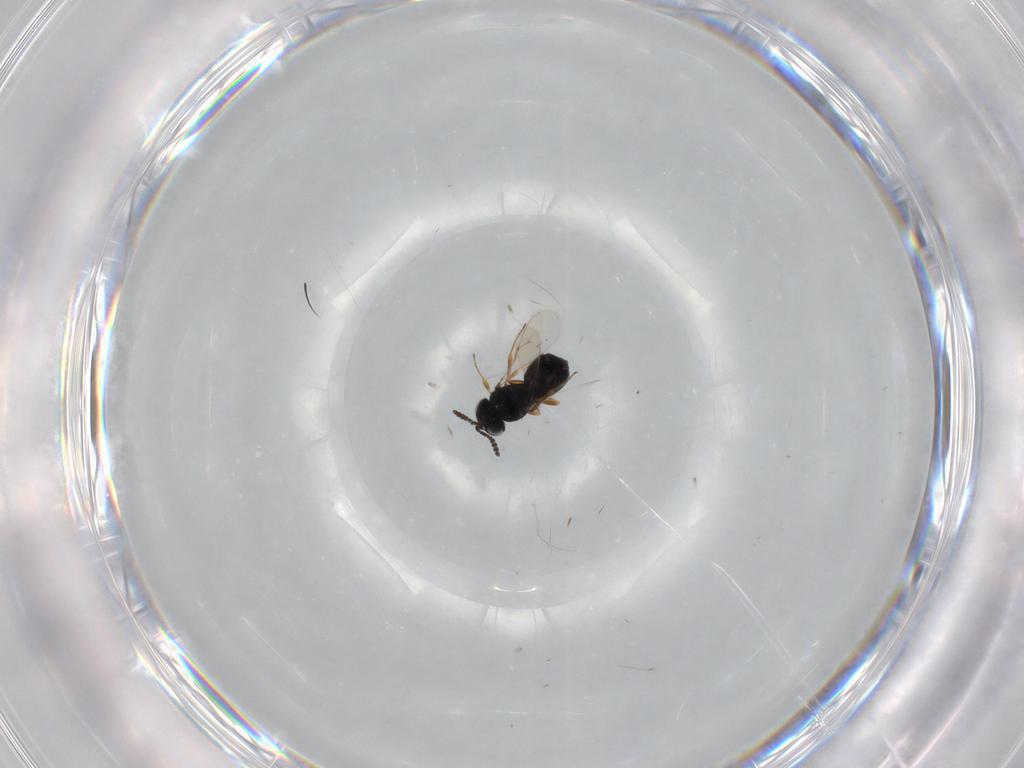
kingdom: Animalia
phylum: Arthropoda
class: Insecta
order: Hymenoptera
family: Scelionidae
